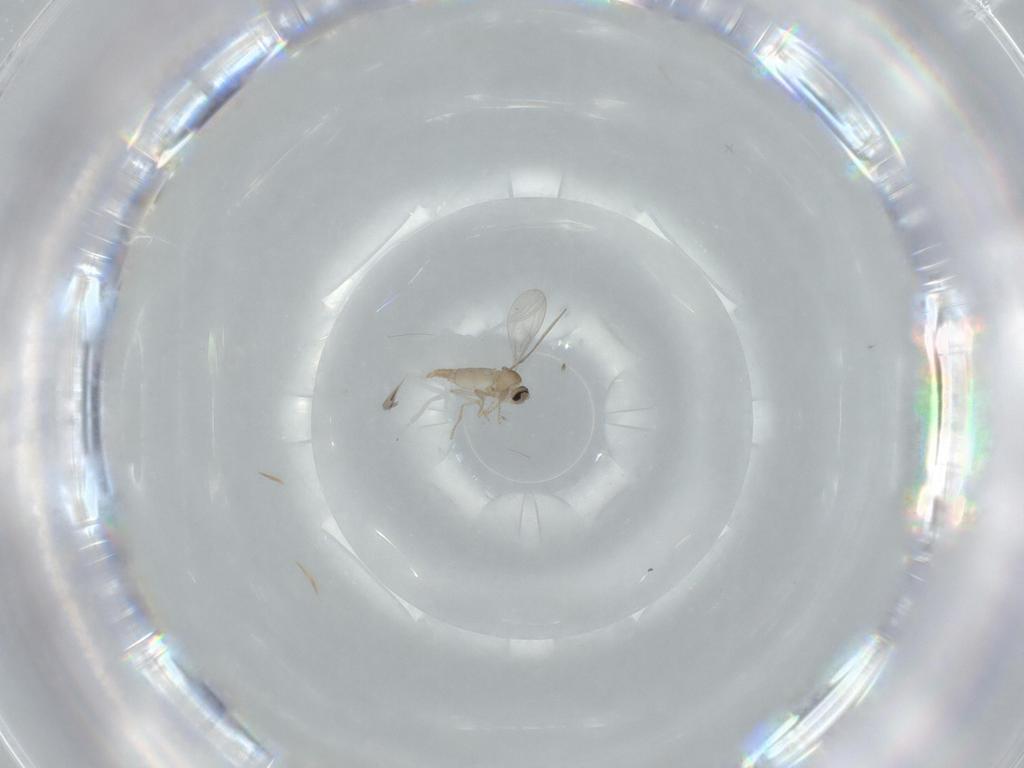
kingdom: Animalia
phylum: Arthropoda
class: Insecta
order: Diptera
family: Cecidomyiidae
